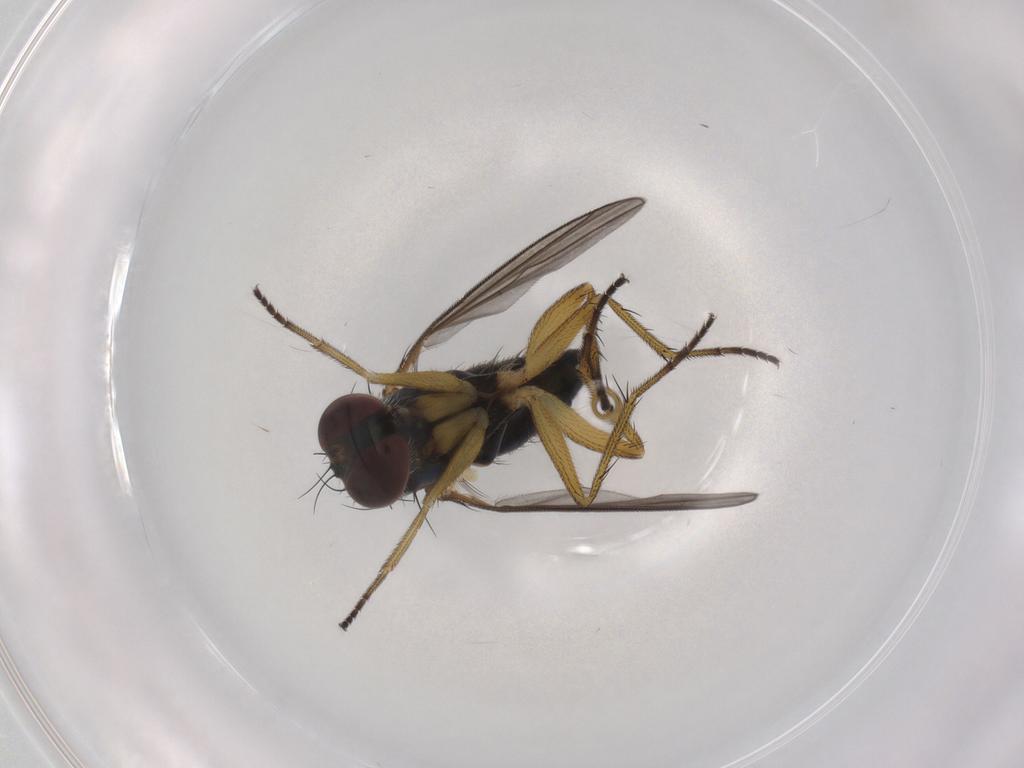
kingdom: Animalia
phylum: Arthropoda
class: Insecta
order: Diptera
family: Dolichopodidae
